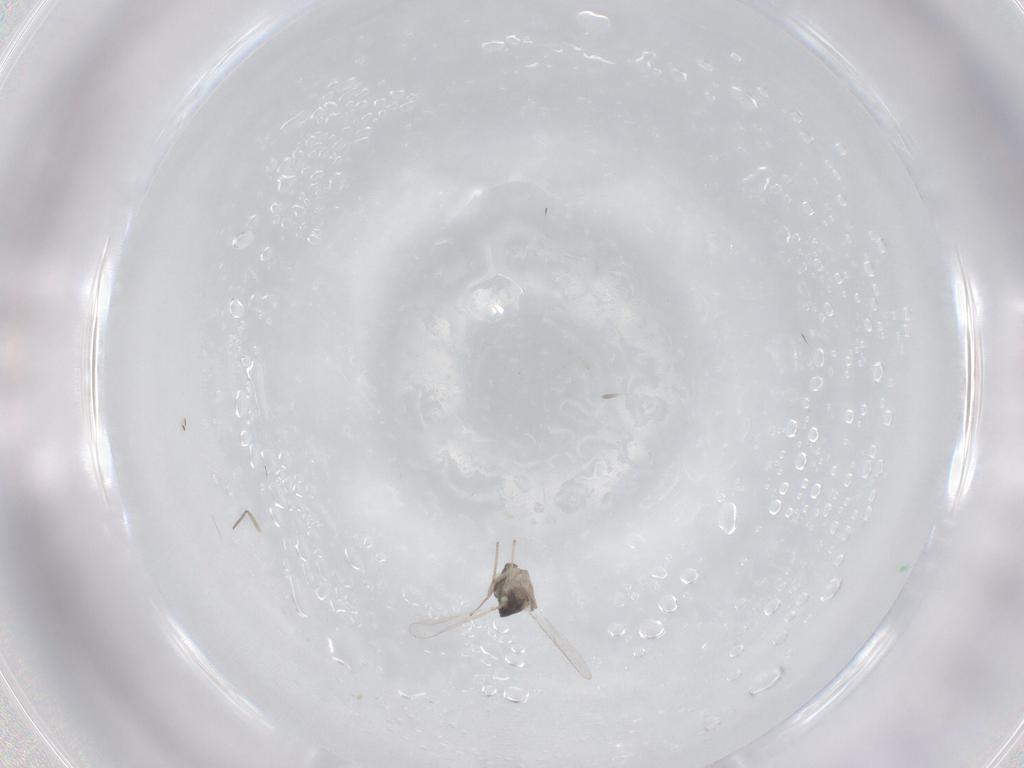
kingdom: Animalia
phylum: Arthropoda
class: Insecta
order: Diptera
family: Chironomidae
